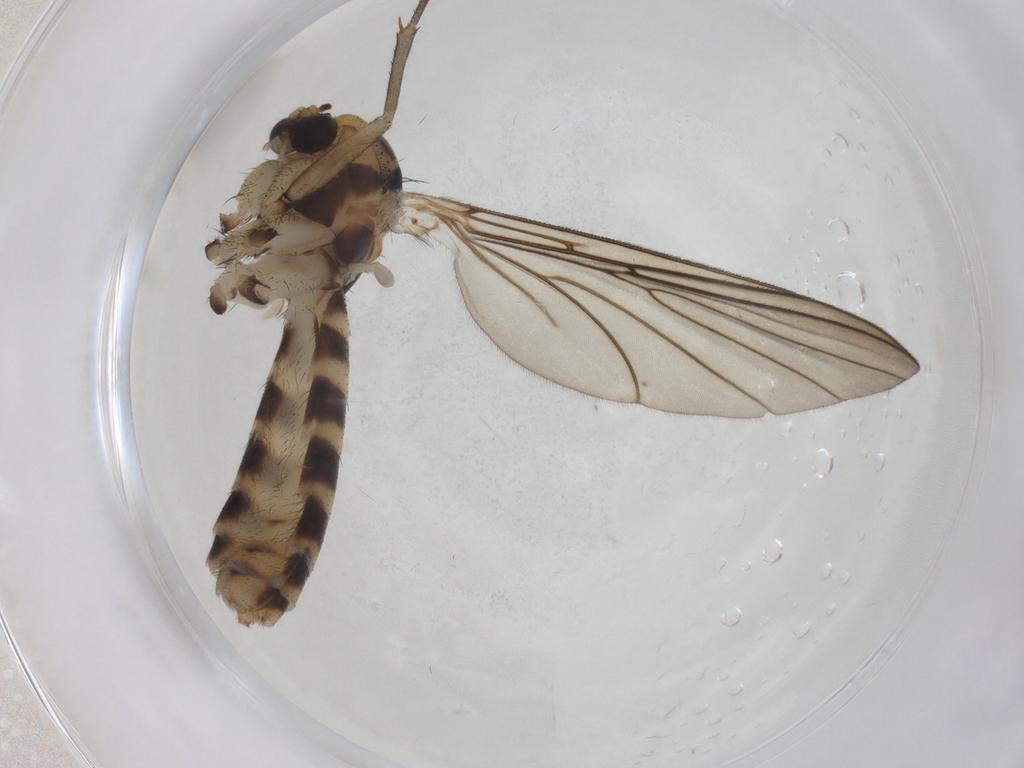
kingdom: Animalia
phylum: Arthropoda
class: Insecta
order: Diptera
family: Mycetophilidae
